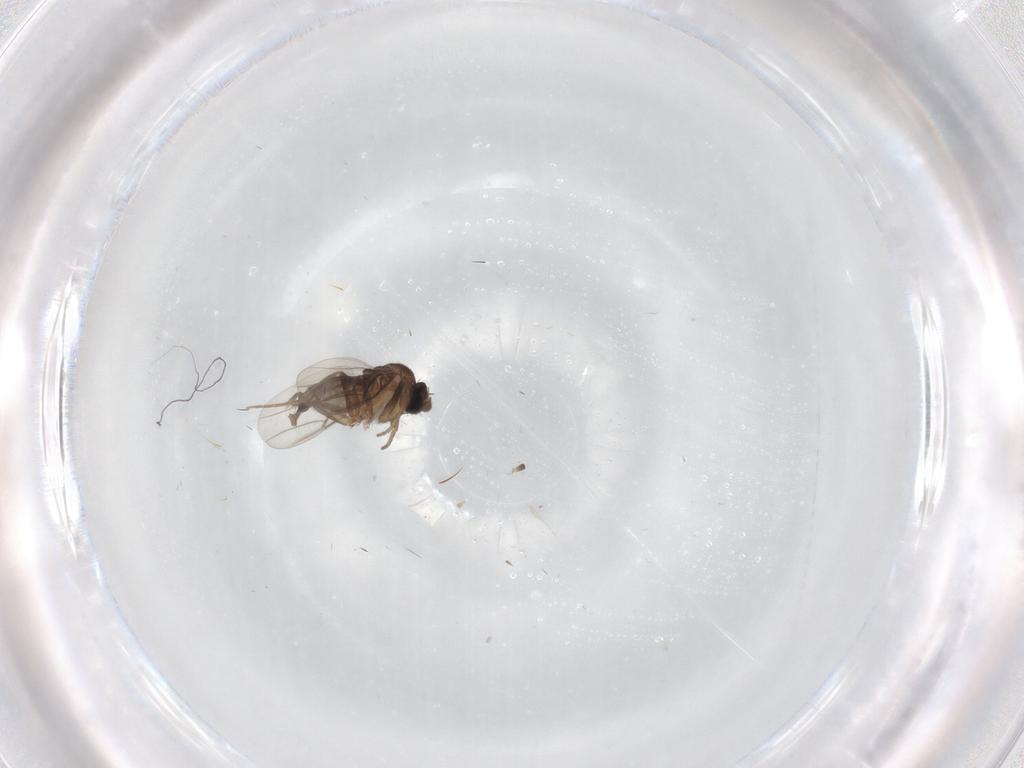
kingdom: Animalia
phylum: Arthropoda
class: Insecta
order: Diptera
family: Phoridae
